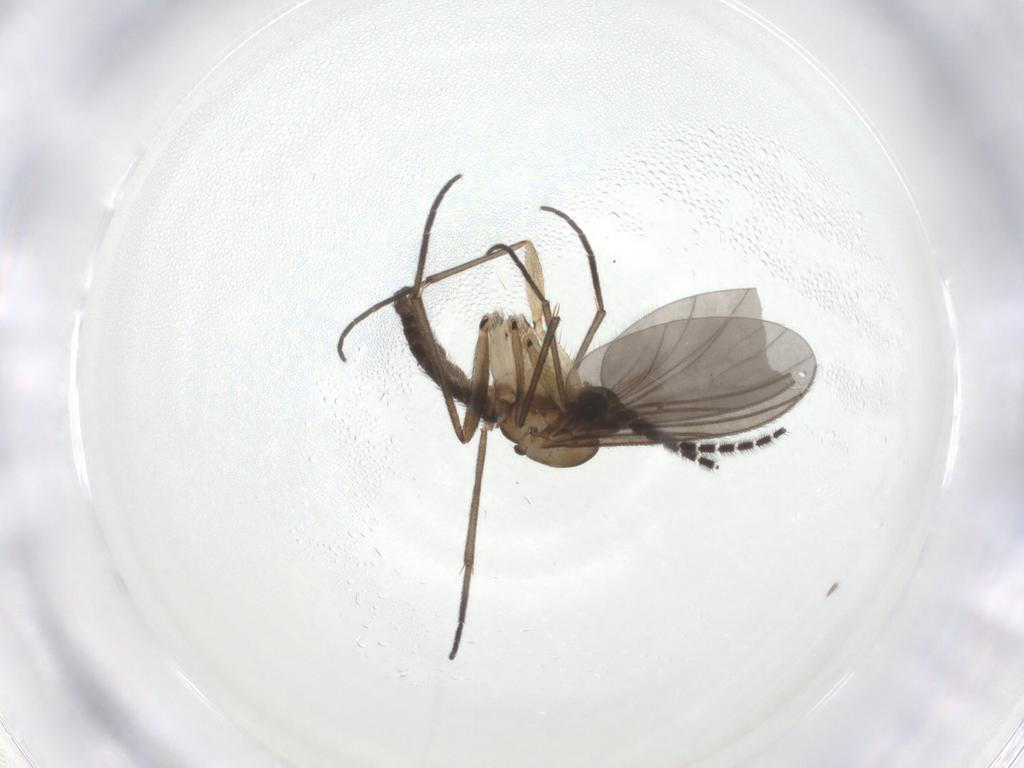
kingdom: Animalia
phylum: Arthropoda
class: Insecta
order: Diptera
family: Sciaridae
